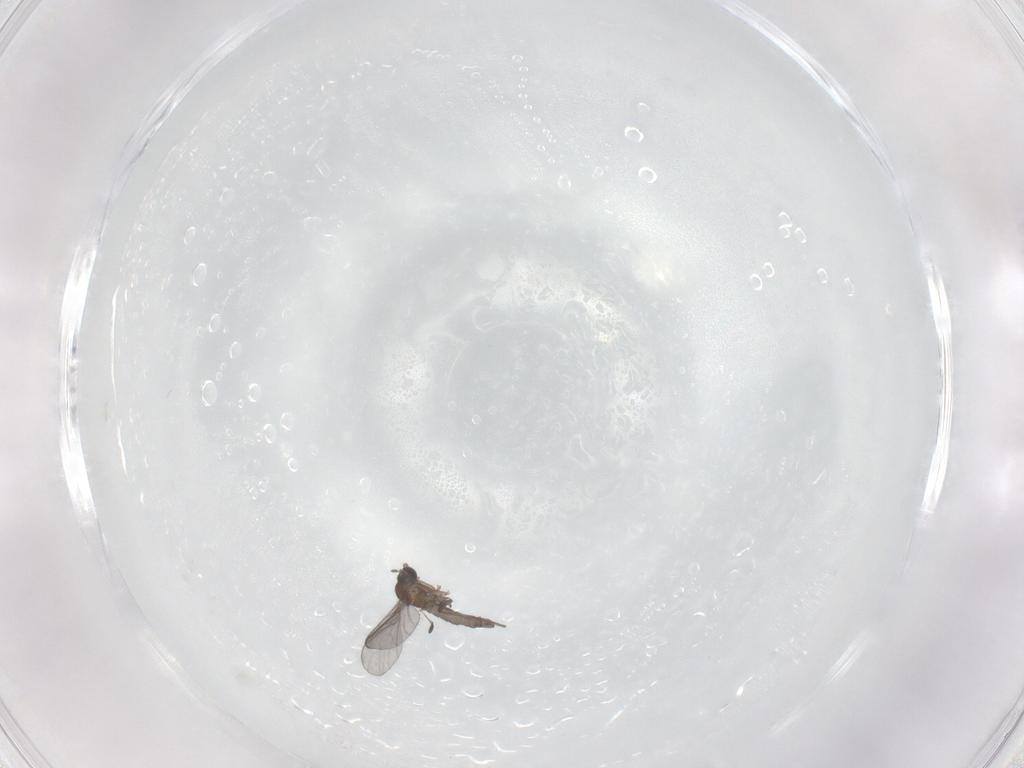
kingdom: Animalia
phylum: Arthropoda
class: Insecta
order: Diptera
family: Sciaridae
